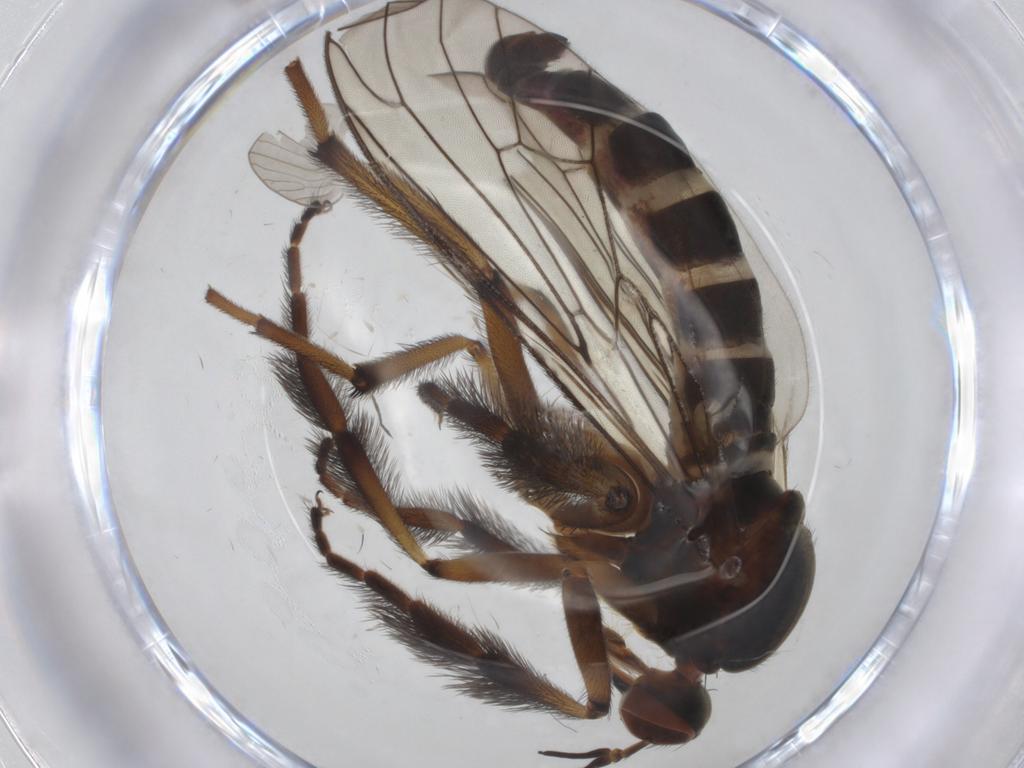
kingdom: Animalia
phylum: Arthropoda
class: Insecta
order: Diptera
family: Empididae
